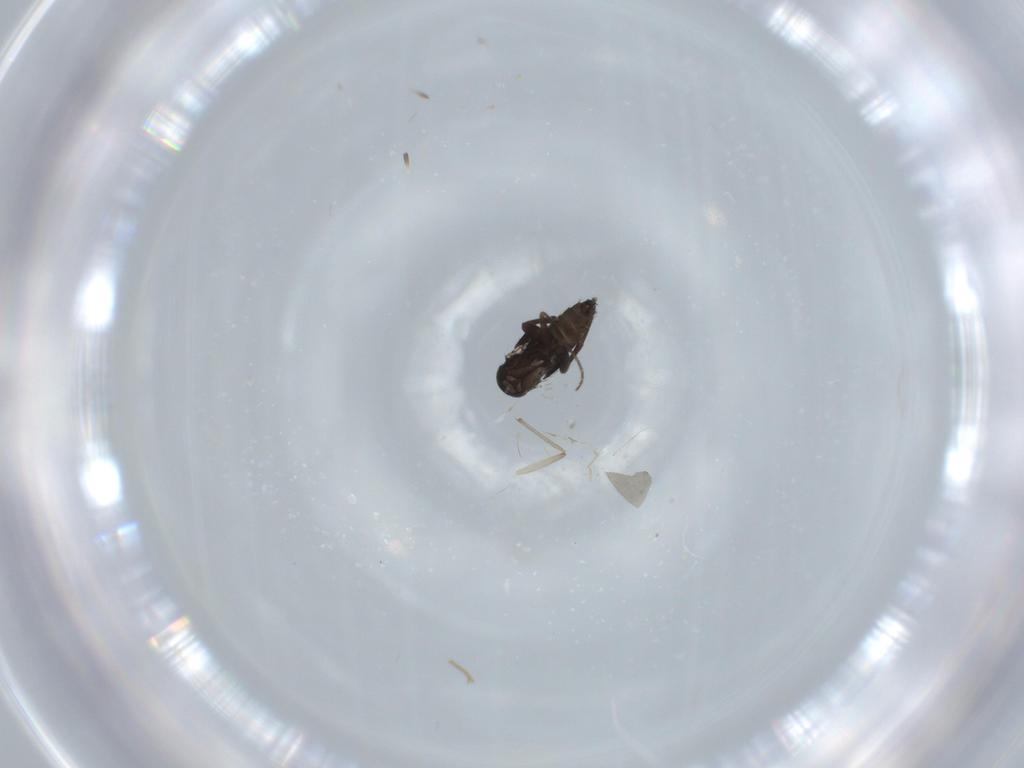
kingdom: Animalia
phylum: Arthropoda
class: Insecta
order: Diptera
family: Phoridae
